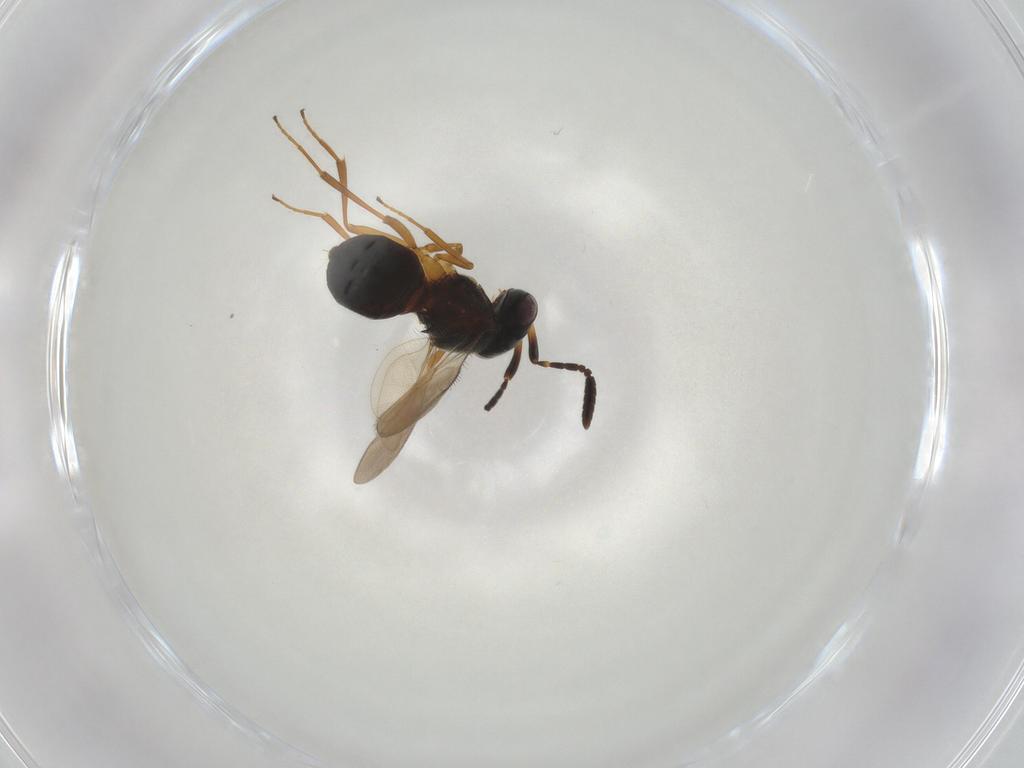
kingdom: Animalia
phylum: Arthropoda
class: Insecta
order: Hymenoptera
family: Scelionidae
